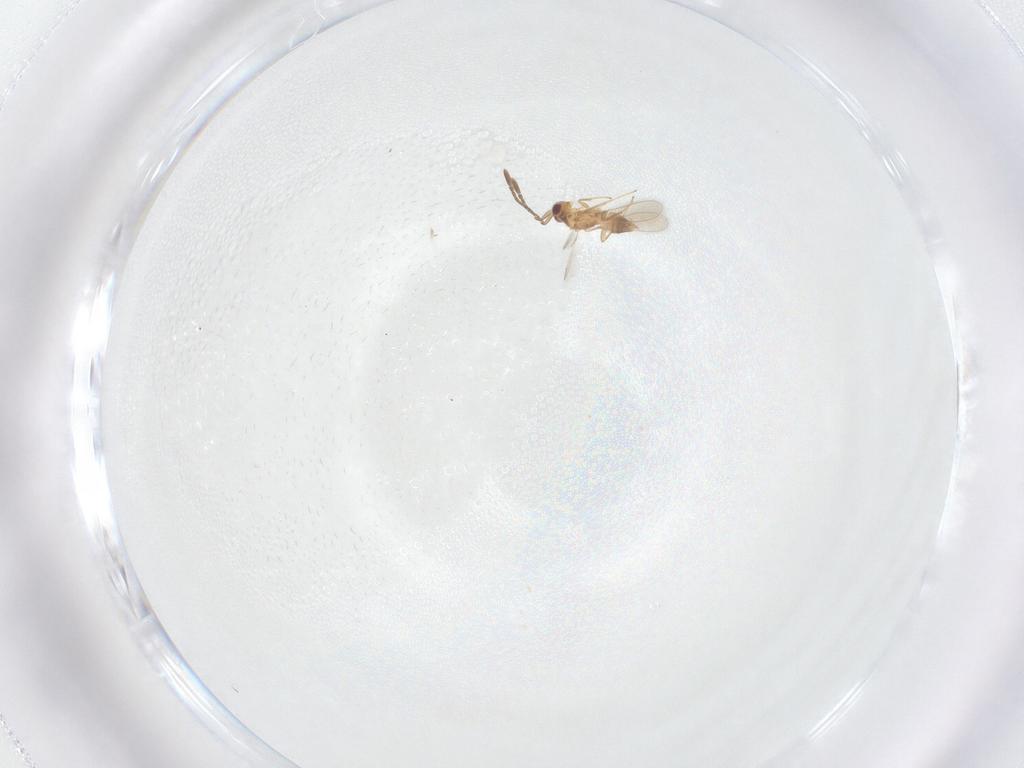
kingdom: Animalia
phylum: Arthropoda
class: Insecta
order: Hymenoptera
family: Mymaridae
